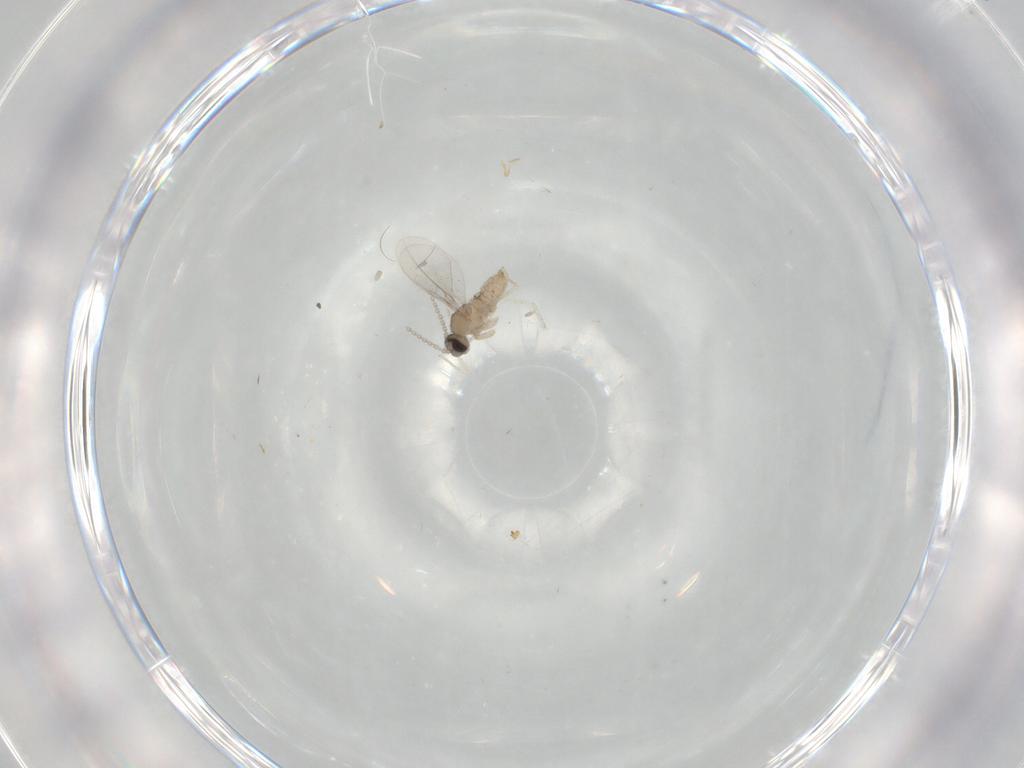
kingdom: Animalia
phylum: Arthropoda
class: Insecta
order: Diptera
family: Cecidomyiidae
